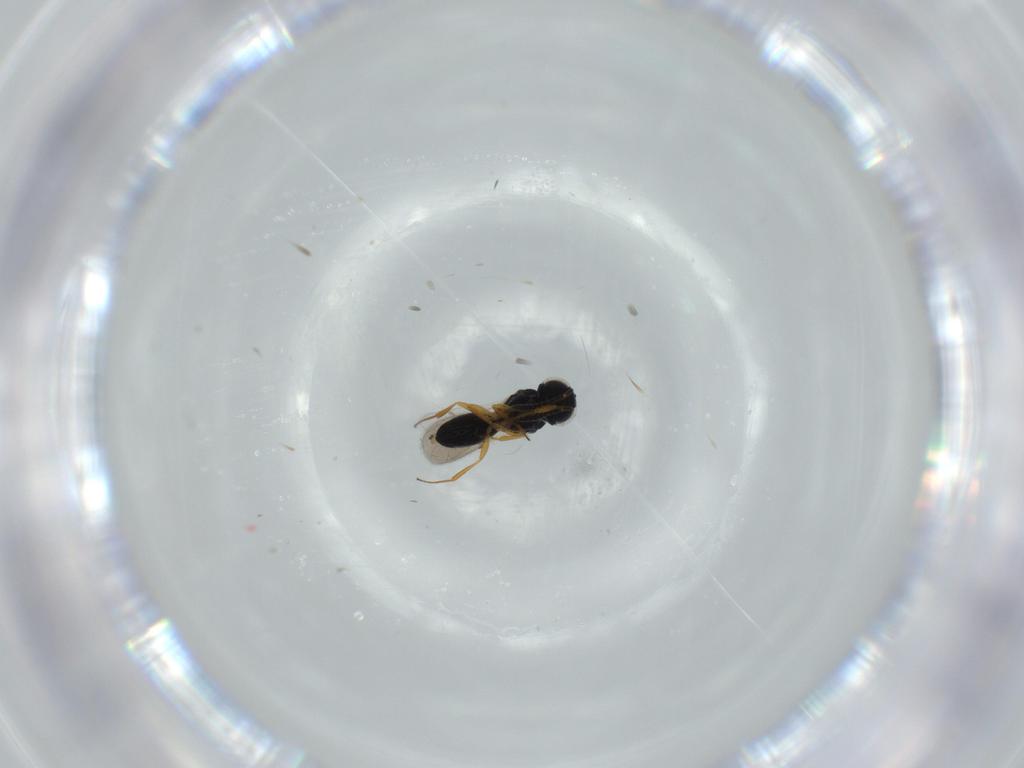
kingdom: Animalia
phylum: Arthropoda
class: Insecta
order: Hymenoptera
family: Scelionidae
